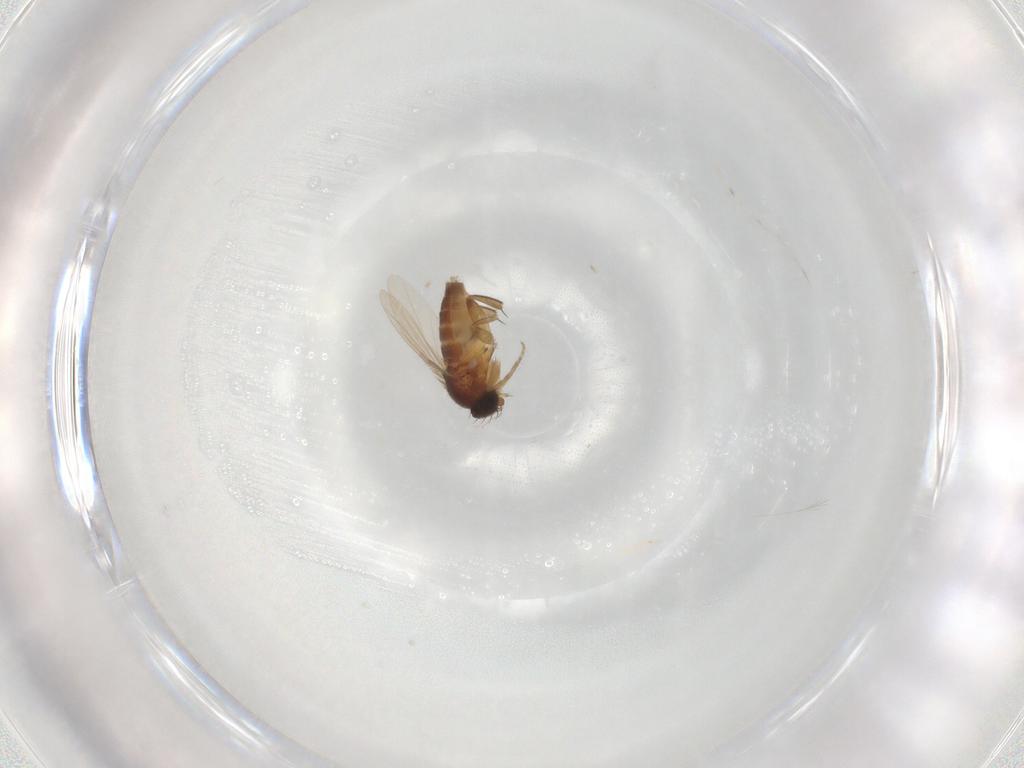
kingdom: Animalia
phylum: Arthropoda
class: Insecta
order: Diptera
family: Phoridae
